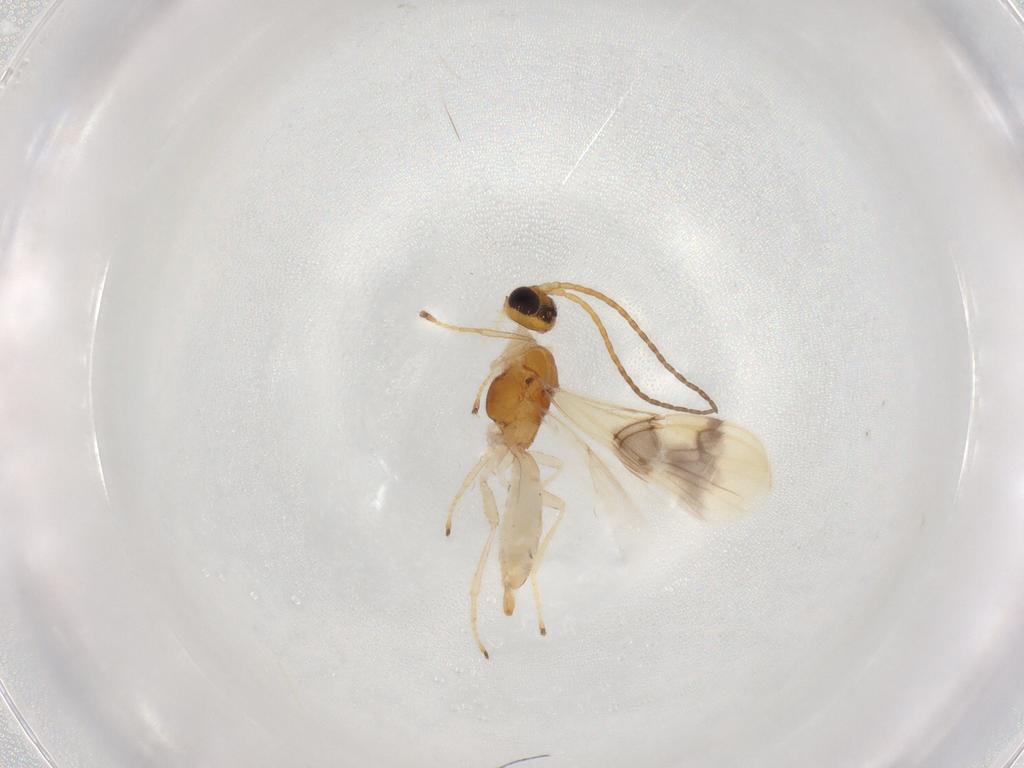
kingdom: Animalia
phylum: Arthropoda
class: Insecta
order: Hymenoptera
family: Braconidae
